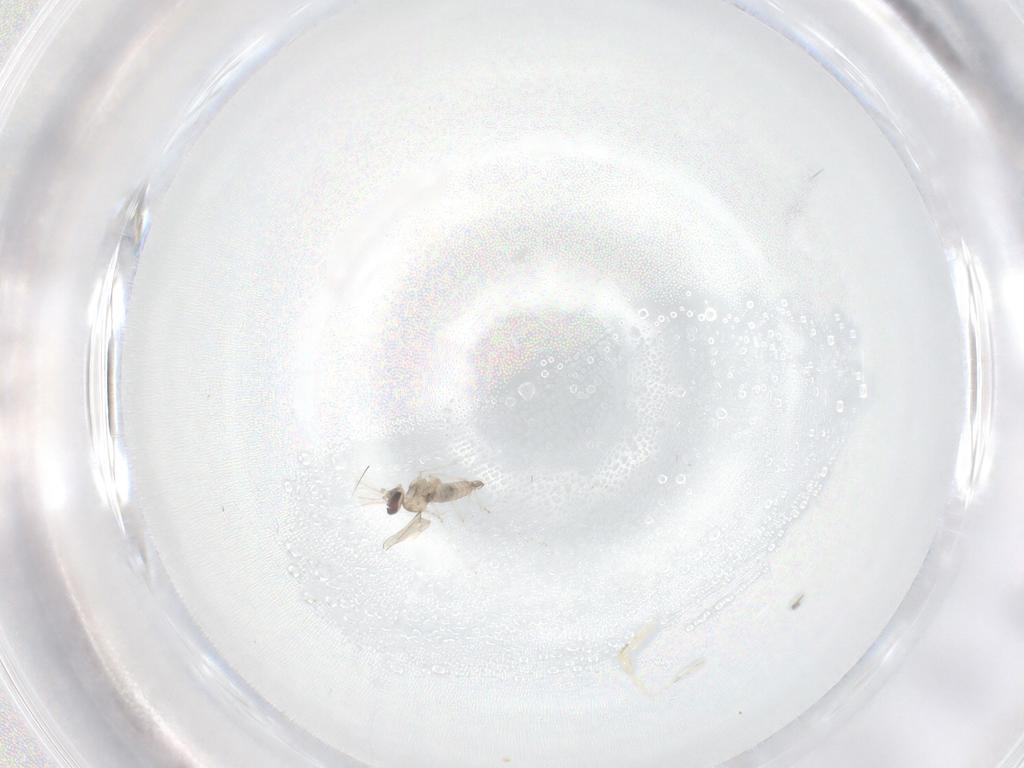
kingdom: Animalia
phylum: Arthropoda
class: Insecta
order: Diptera
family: Cecidomyiidae
